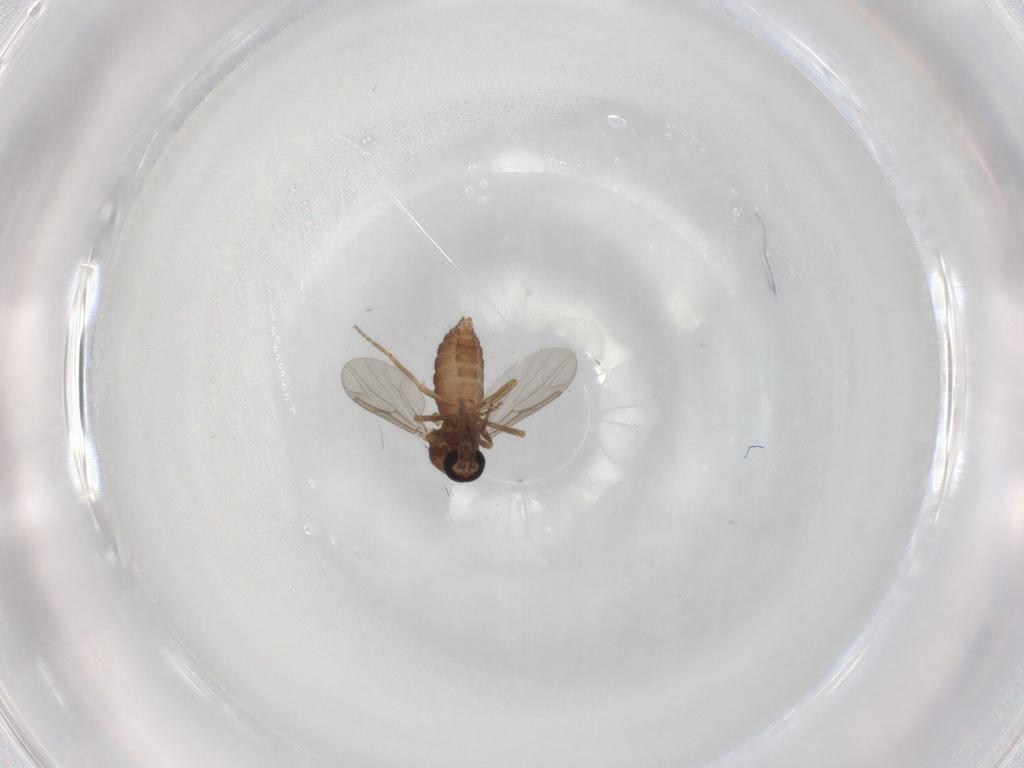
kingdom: Animalia
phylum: Arthropoda
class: Insecta
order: Diptera
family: Ceratopogonidae
